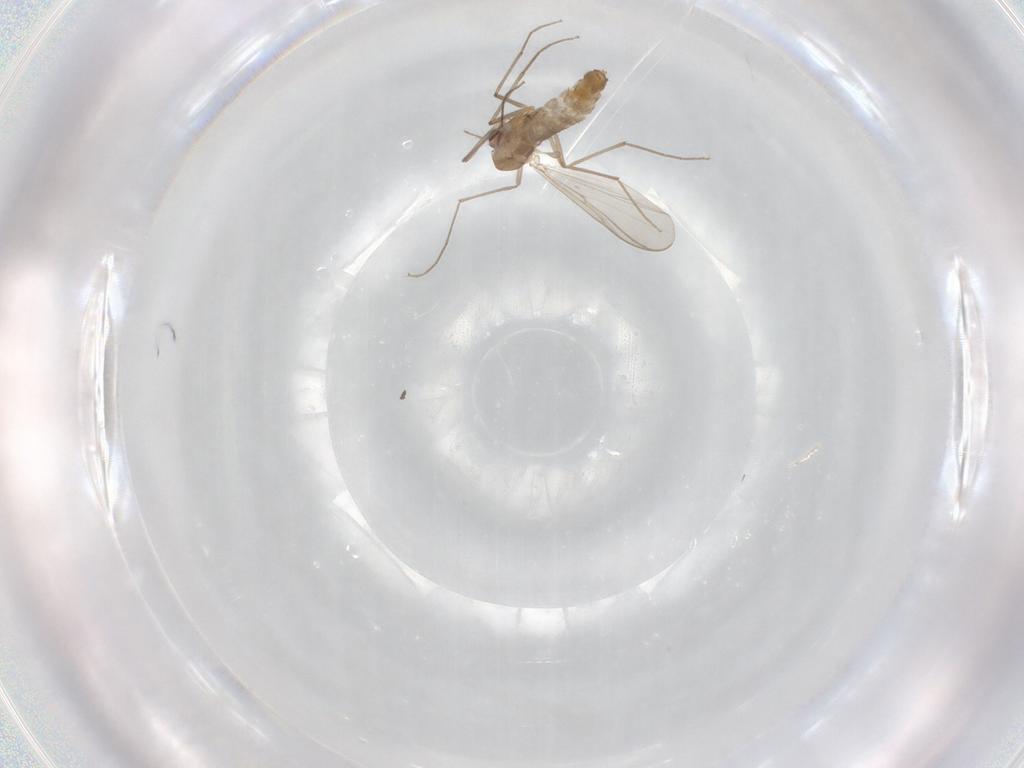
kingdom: Animalia
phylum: Arthropoda
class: Insecta
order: Diptera
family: Chironomidae
